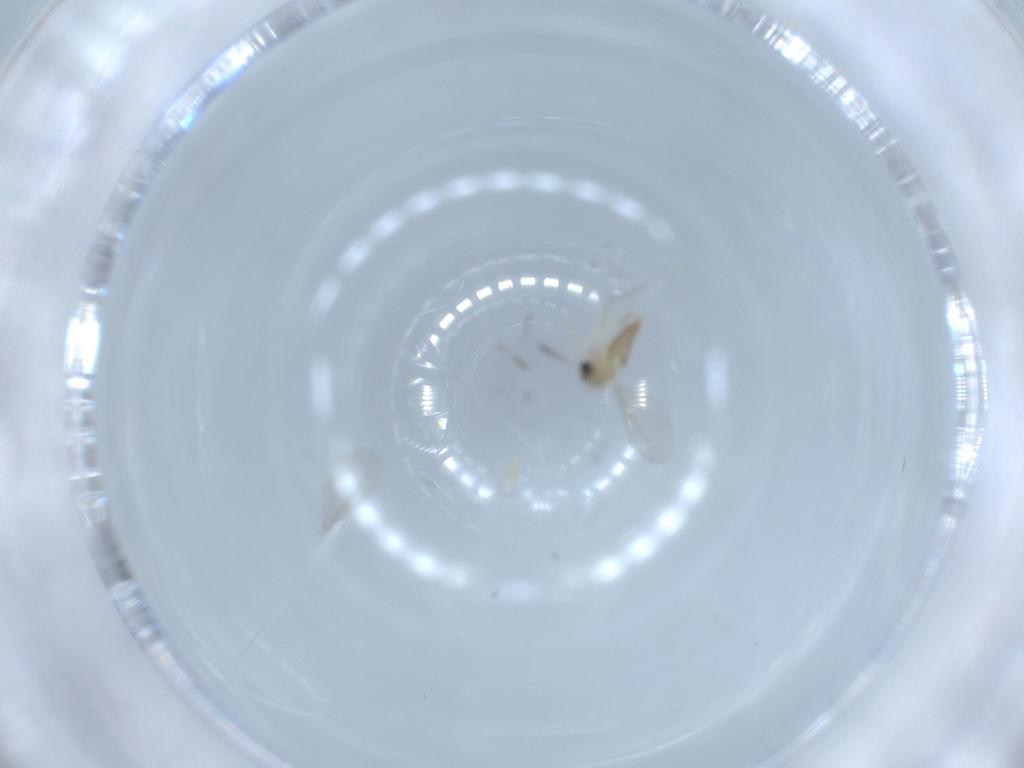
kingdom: Animalia
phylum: Arthropoda
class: Insecta
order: Diptera
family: Cecidomyiidae
